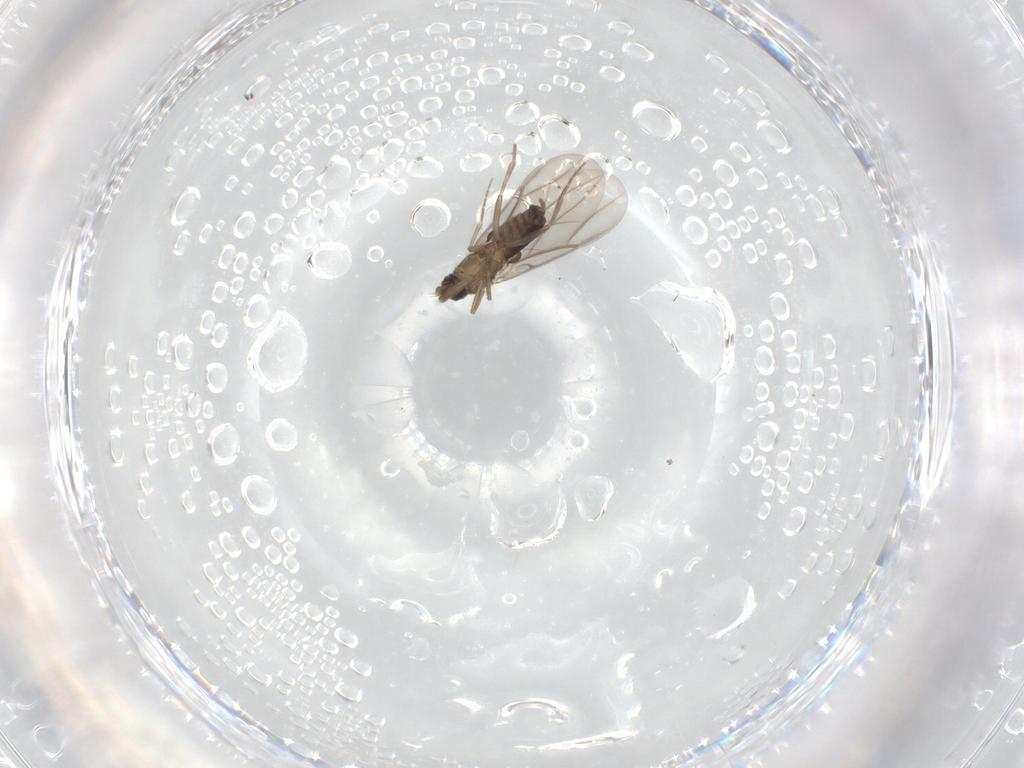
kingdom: Animalia
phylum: Arthropoda
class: Insecta
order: Diptera
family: Phoridae
